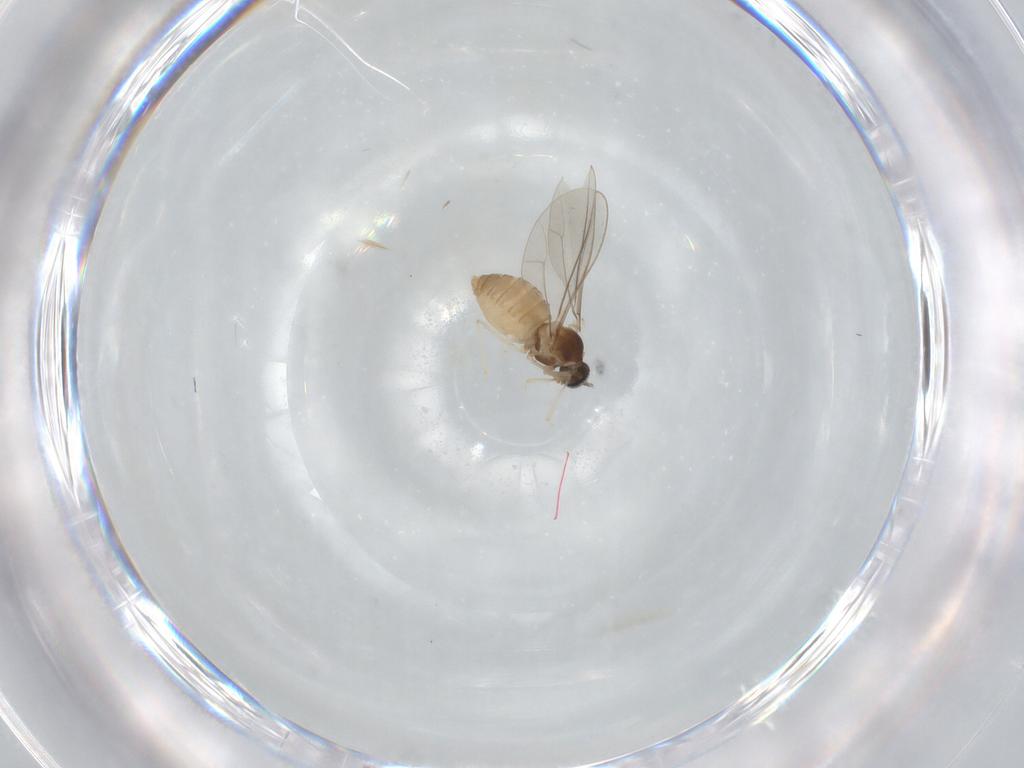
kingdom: Animalia
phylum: Arthropoda
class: Insecta
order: Diptera
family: Cecidomyiidae
